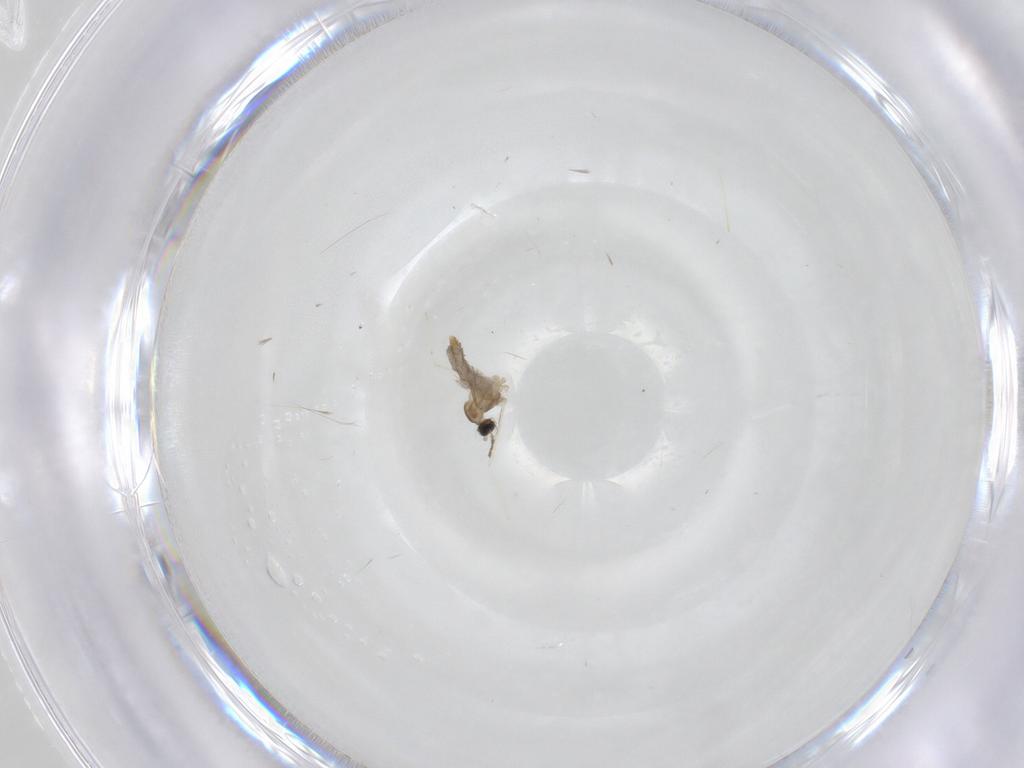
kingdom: Animalia
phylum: Arthropoda
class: Insecta
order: Diptera
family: Cecidomyiidae
